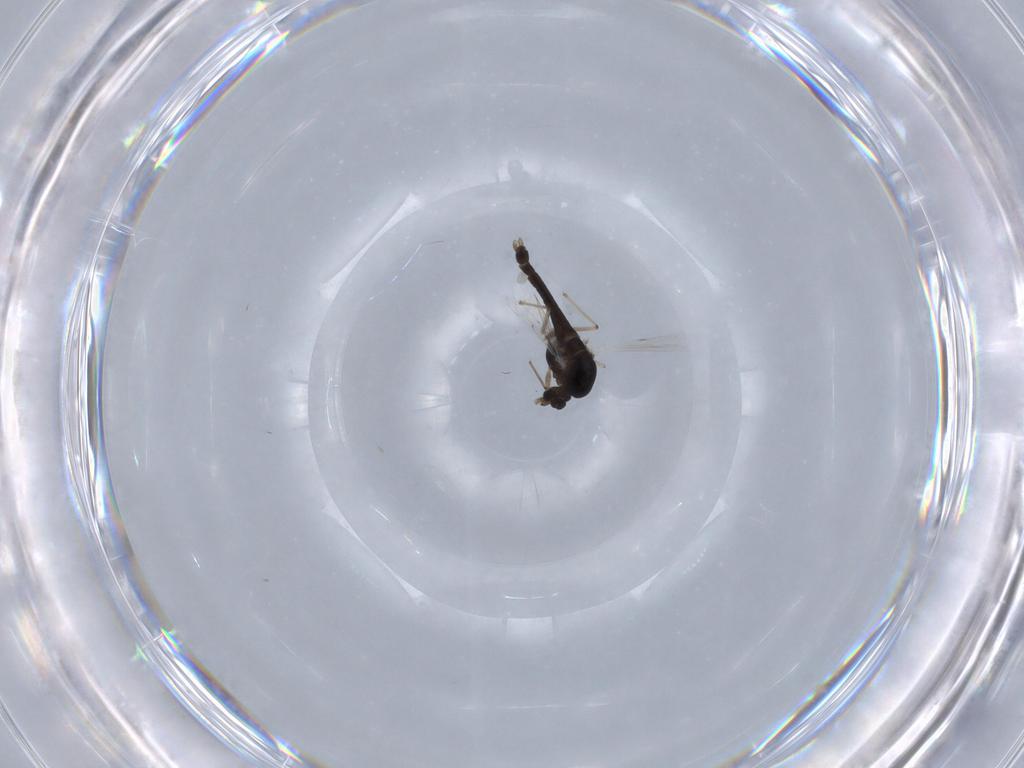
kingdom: Animalia
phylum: Arthropoda
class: Insecta
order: Diptera
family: Chironomidae
